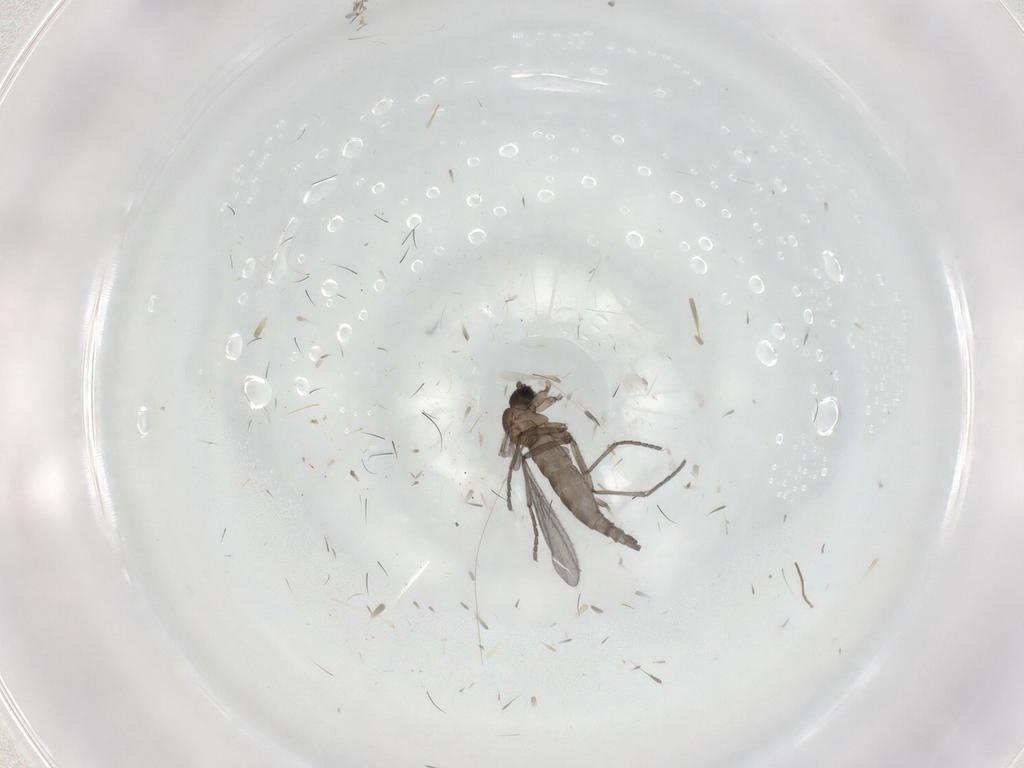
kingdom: Animalia
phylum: Arthropoda
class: Insecta
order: Diptera
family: Sciaridae
